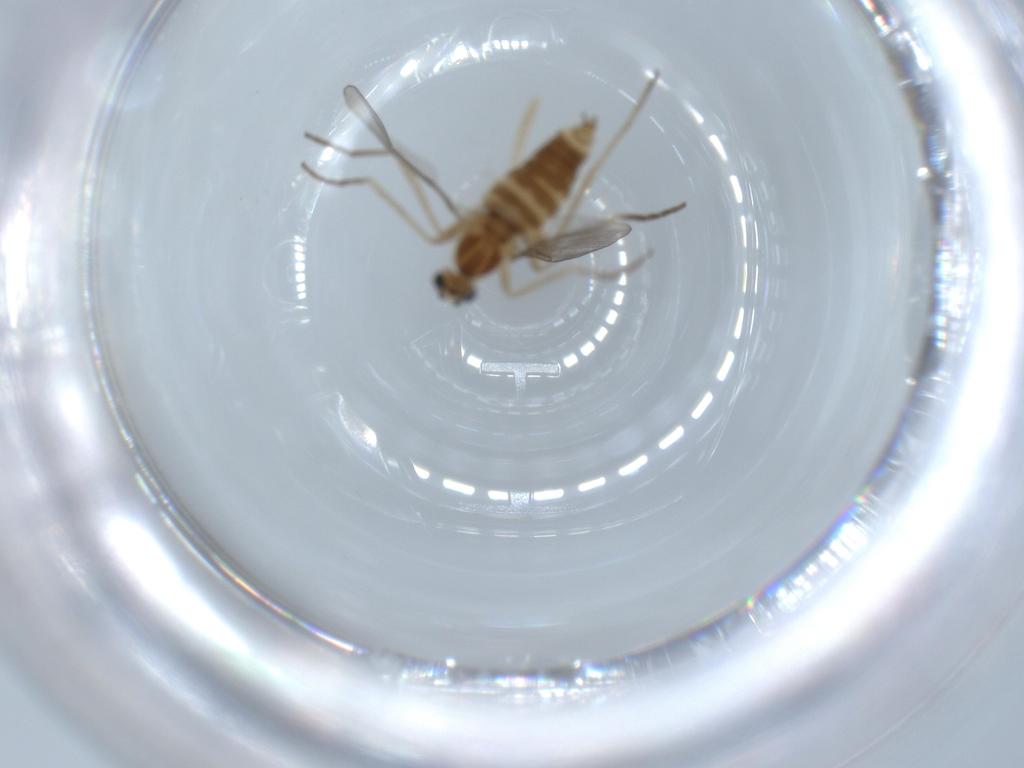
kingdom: Animalia
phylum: Arthropoda
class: Insecta
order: Diptera
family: Cecidomyiidae
